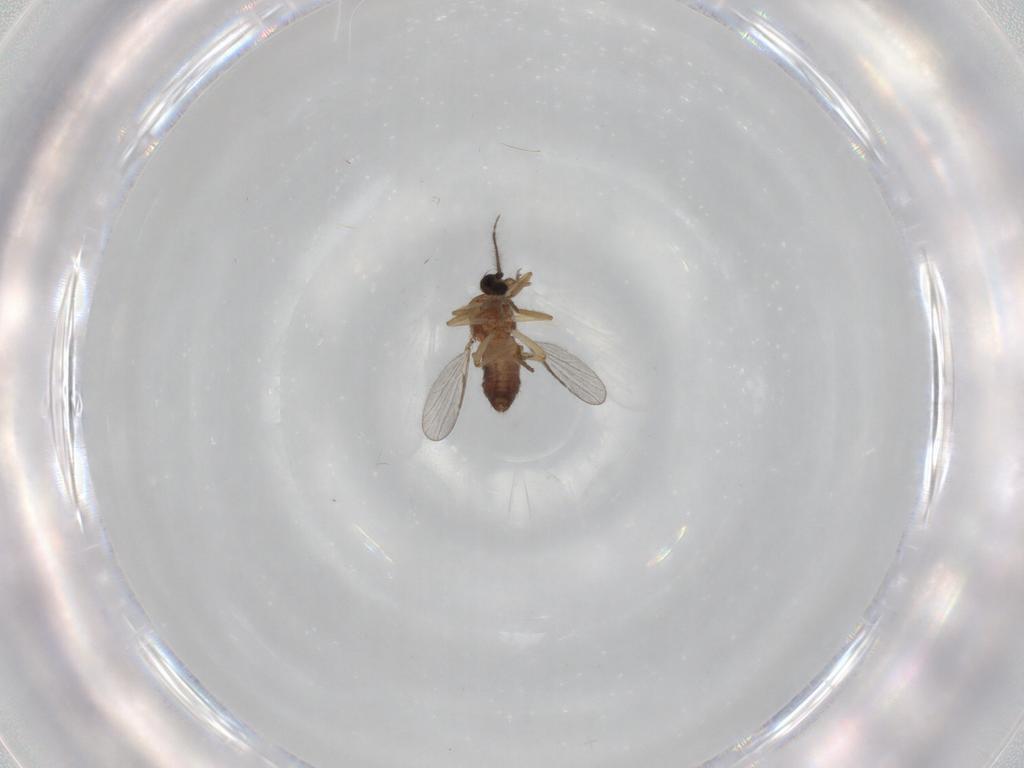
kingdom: Animalia
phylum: Arthropoda
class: Insecta
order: Diptera
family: Ceratopogonidae
